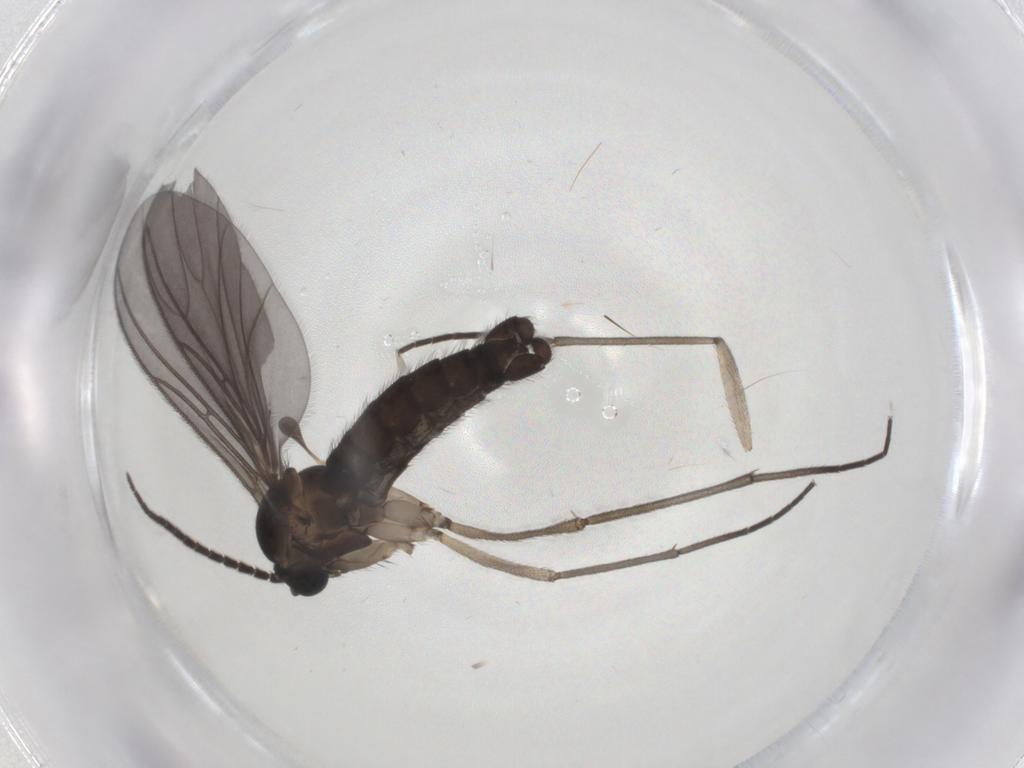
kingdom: Animalia
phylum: Arthropoda
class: Insecta
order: Diptera
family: Sciaridae
